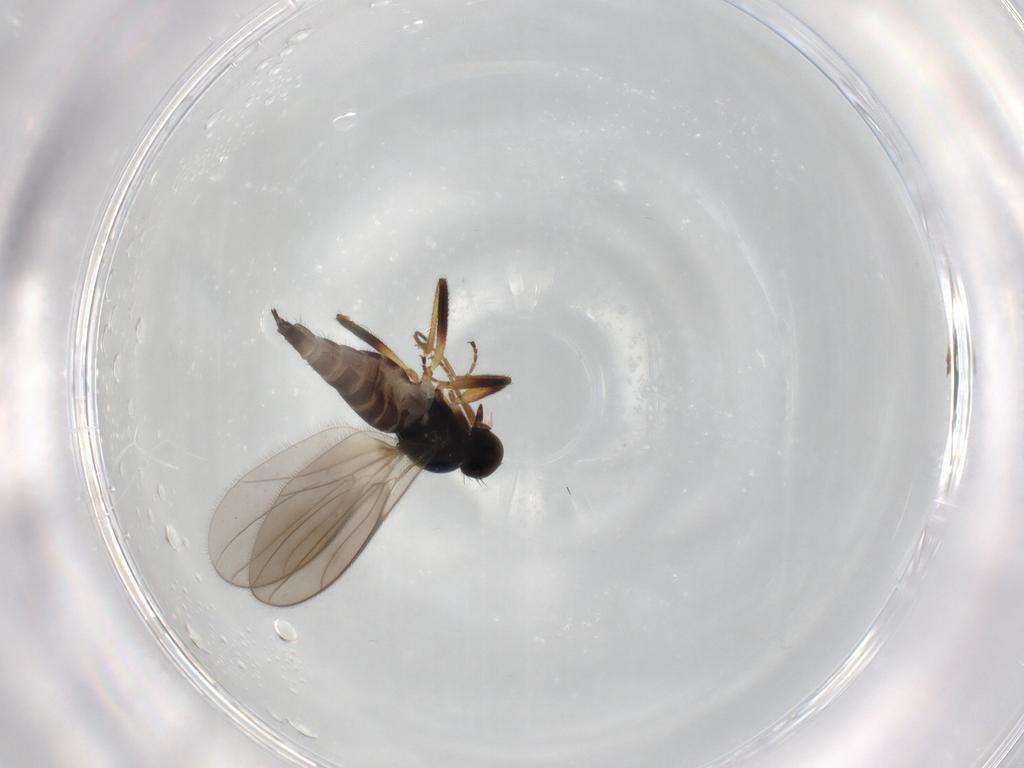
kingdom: Animalia
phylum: Arthropoda
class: Insecta
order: Diptera
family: Hybotidae
